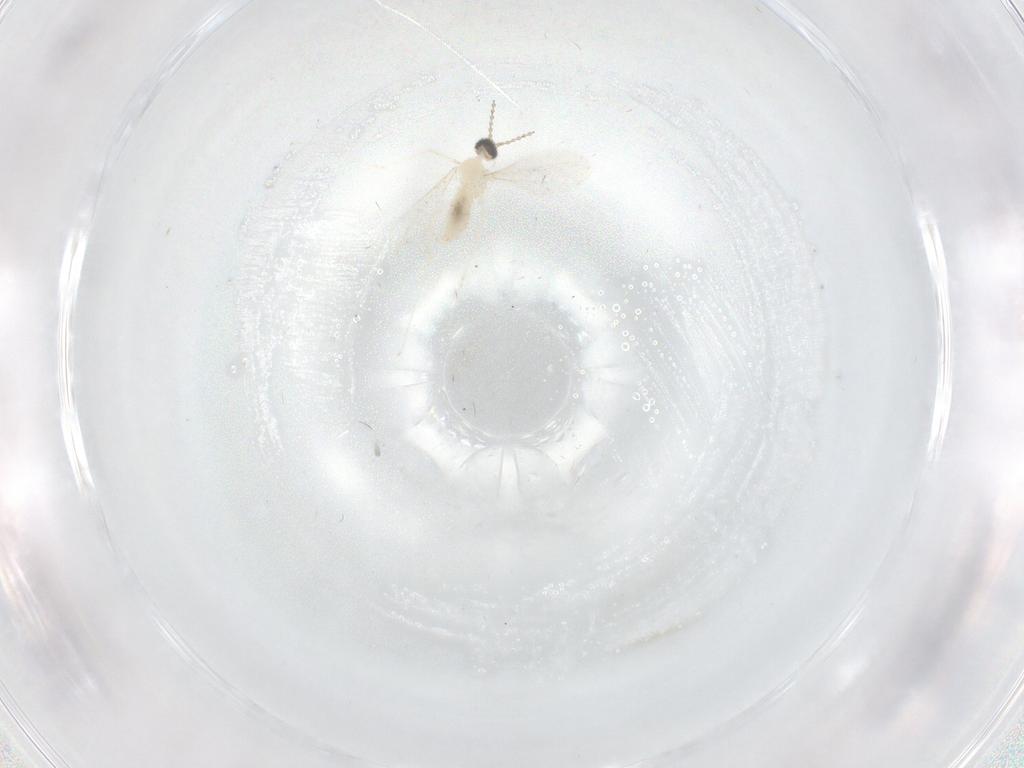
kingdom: Animalia
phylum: Arthropoda
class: Insecta
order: Diptera
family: Cecidomyiidae
